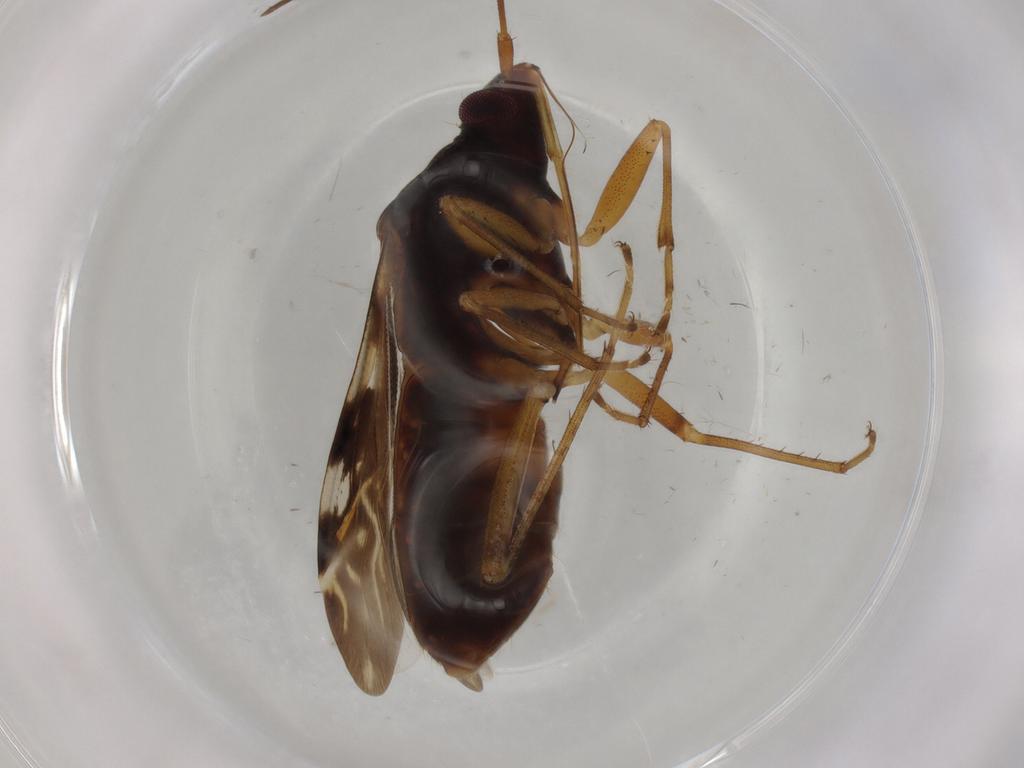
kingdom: Animalia
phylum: Arthropoda
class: Insecta
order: Hemiptera
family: Rhyparochromidae
